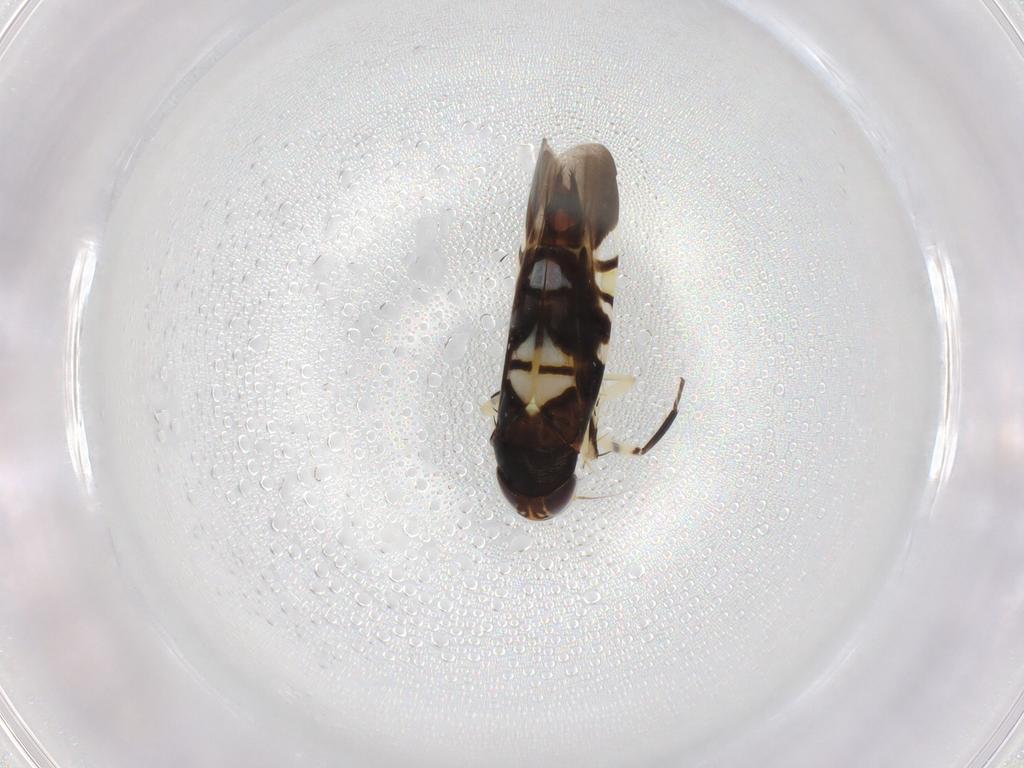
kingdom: Animalia
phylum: Arthropoda
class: Insecta
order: Hemiptera
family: Cicadellidae
